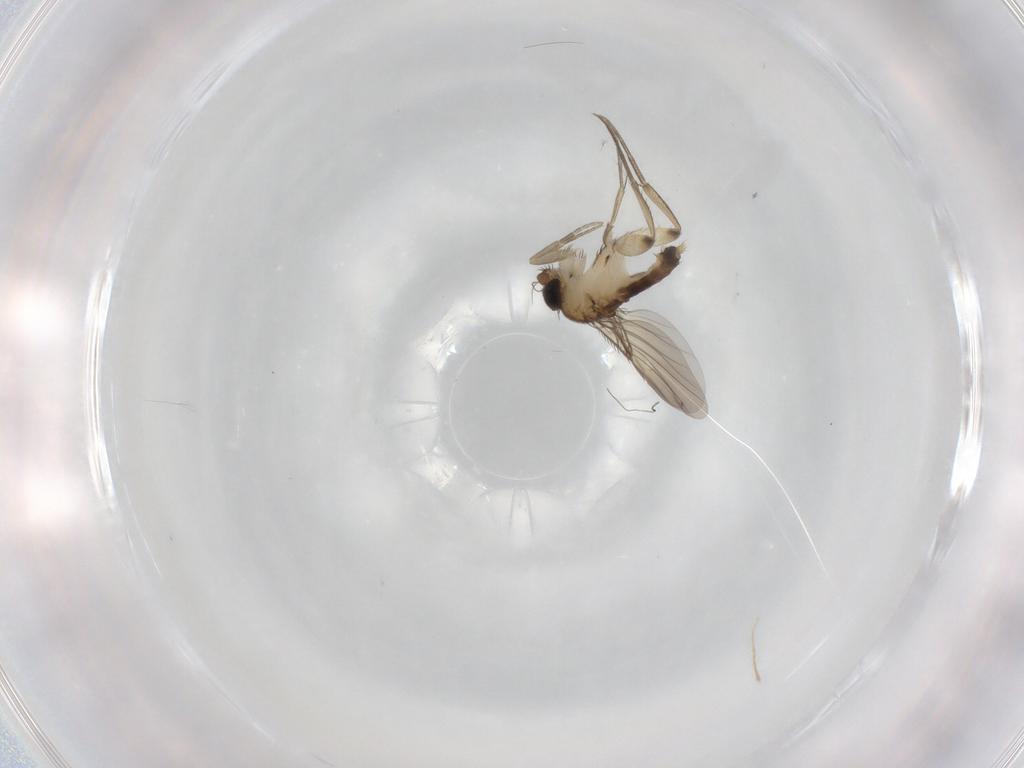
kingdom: Animalia
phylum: Arthropoda
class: Insecta
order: Diptera
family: Phoridae
